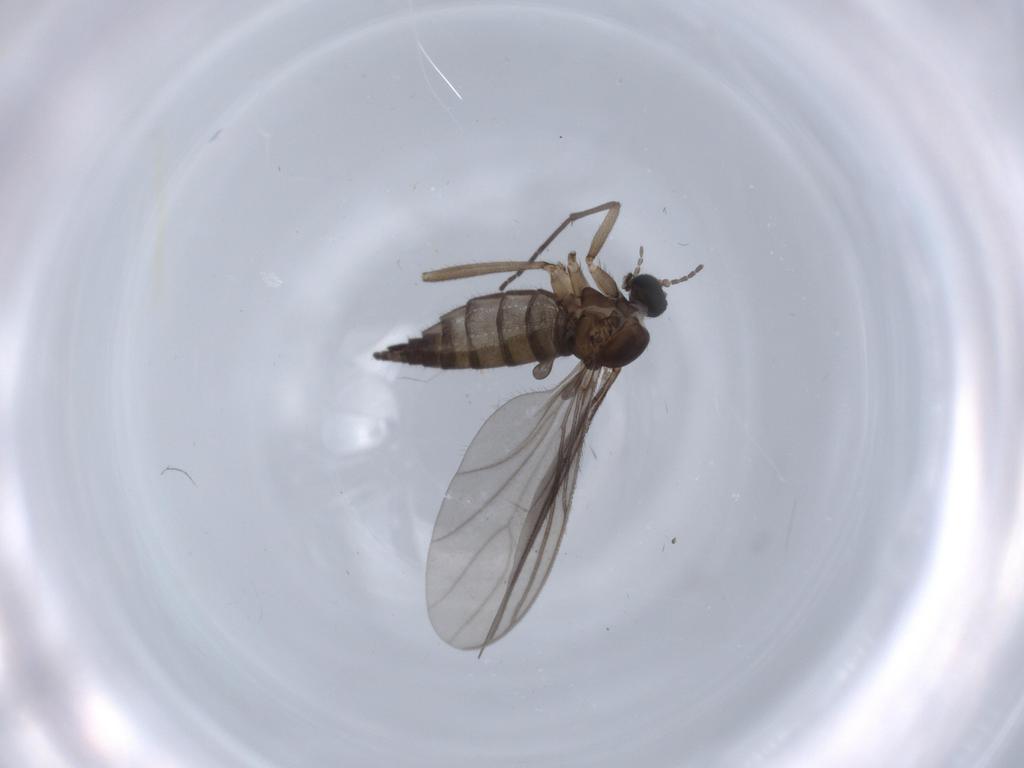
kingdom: Animalia
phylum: Arthropoda
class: Insecta
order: Diptera
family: Sciaridae
